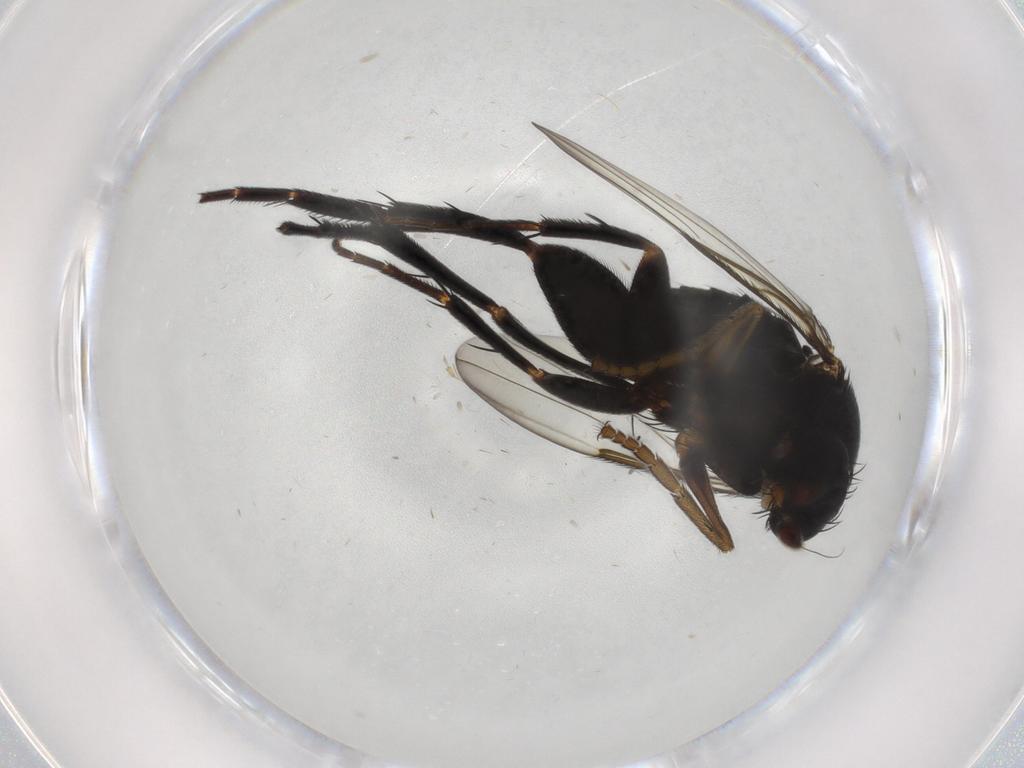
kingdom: Animalia
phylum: Arthropoda
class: Insecta
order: Diptera
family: Phoridae
